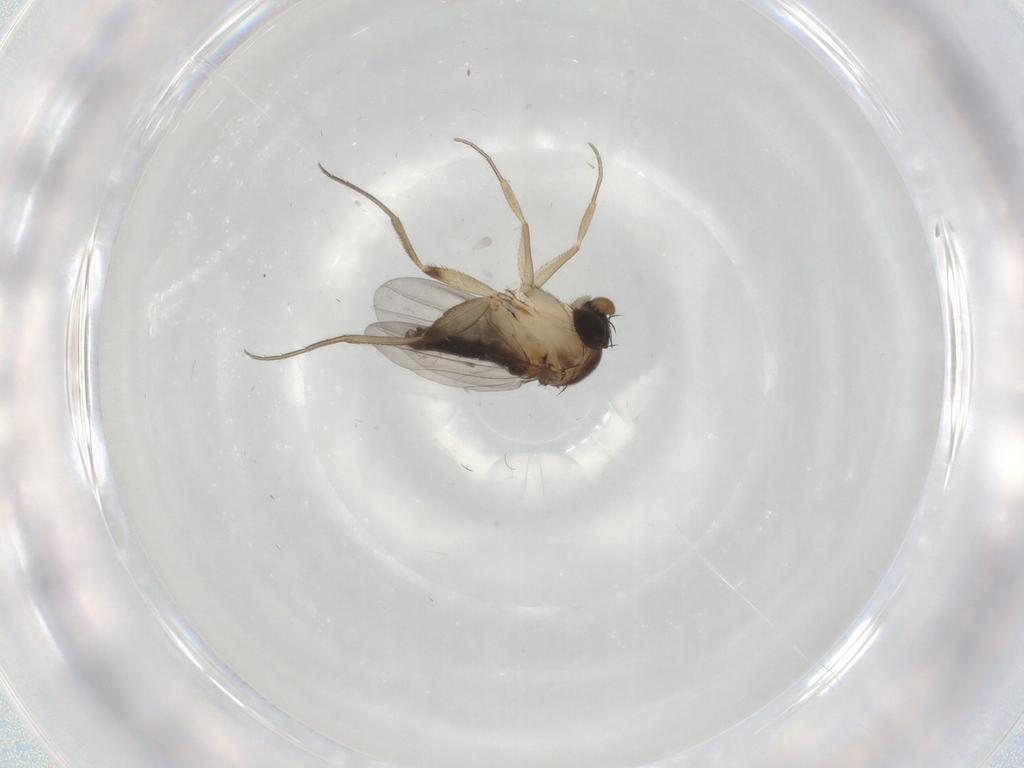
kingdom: Animalia
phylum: Arthropoda
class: Insecta
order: Diptera
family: Phoridae
